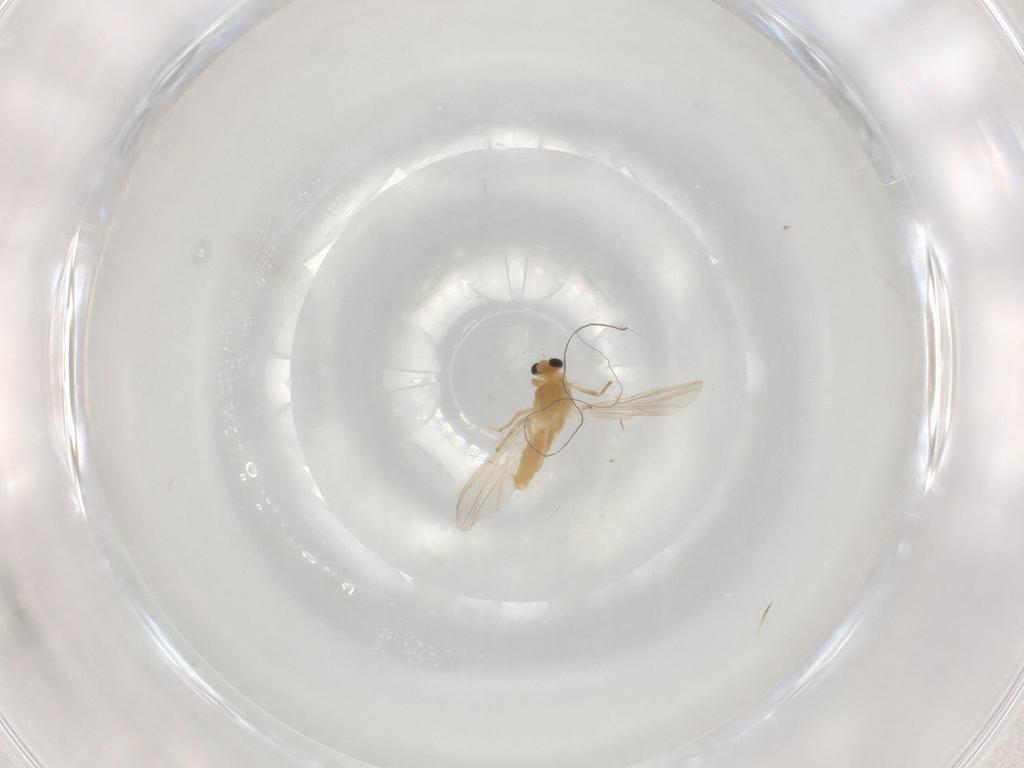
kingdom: Animalia
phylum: Arthropoda
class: Insecta
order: Diptera
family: Chironomidae
